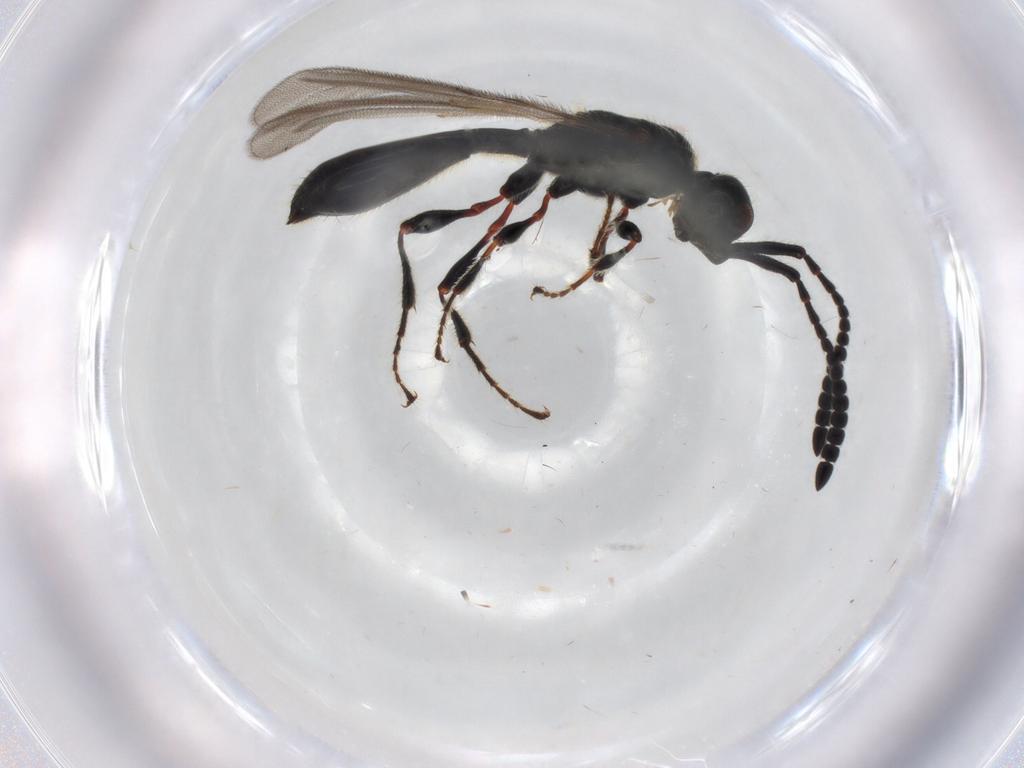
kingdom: Animalia
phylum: Arthropoda
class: Insecta
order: Hymenoptera
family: Diapriidae
